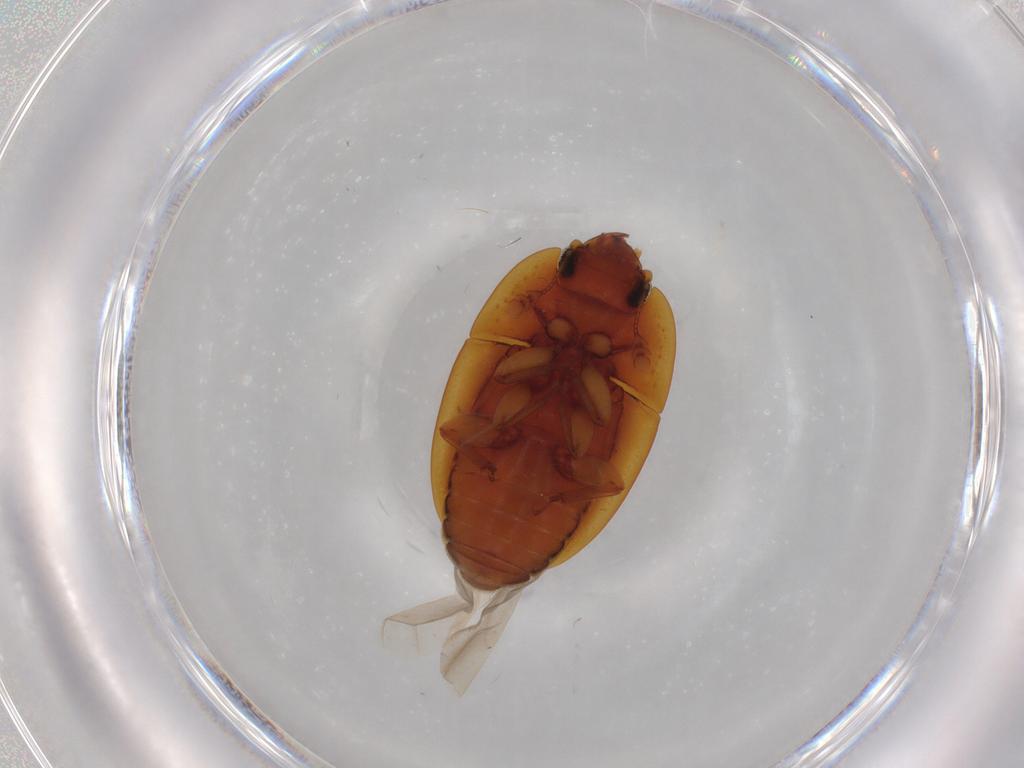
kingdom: Animalia
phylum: Arthropoda
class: Insecta
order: Coleoptera
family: Nitidulidae
